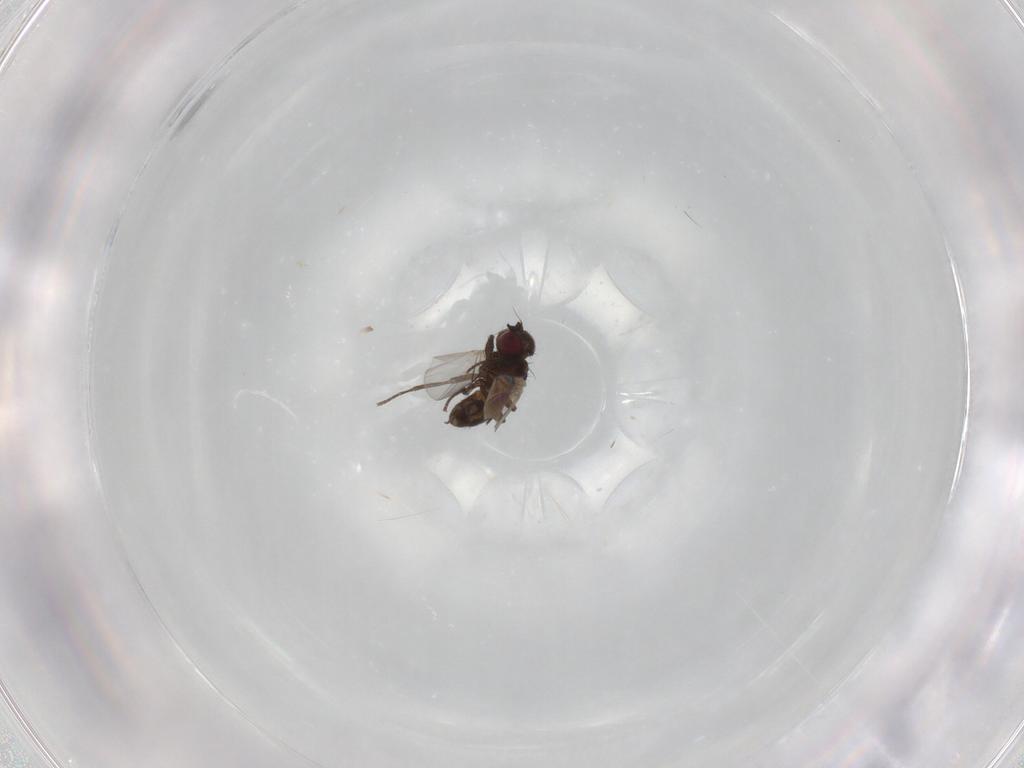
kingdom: Animalia
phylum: Arthropoda
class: Insecta
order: Diptera
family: Agromyzidae
